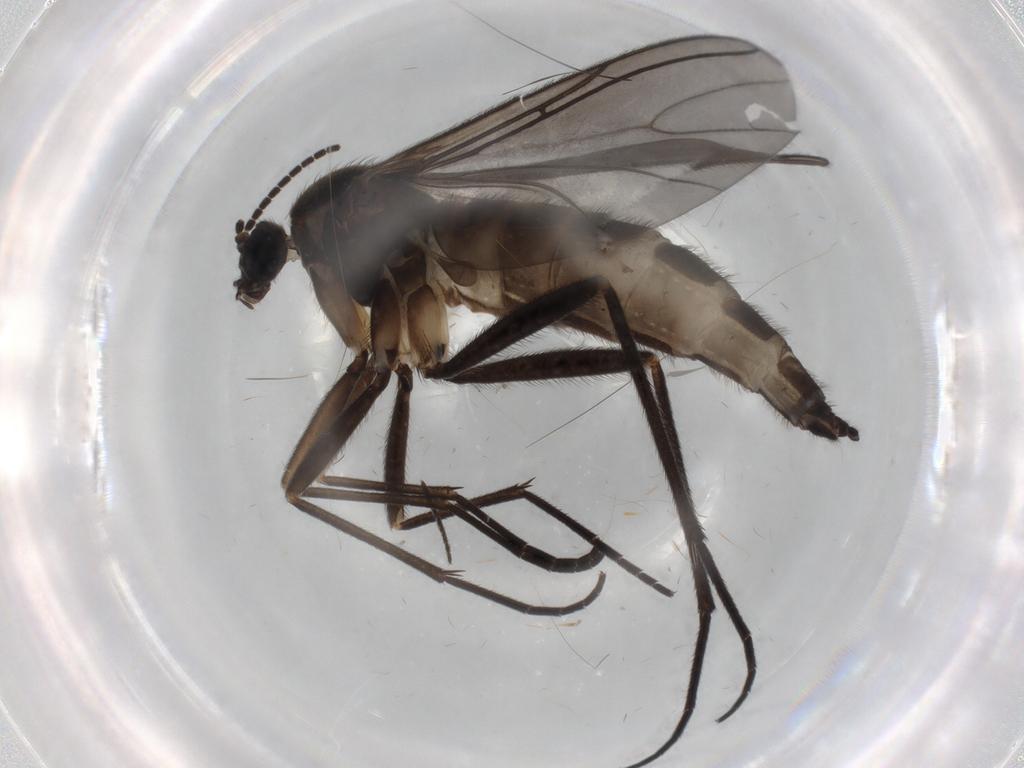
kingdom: Animalia
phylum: Arthropoda
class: Insecta
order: Diptera
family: Sciaridae
